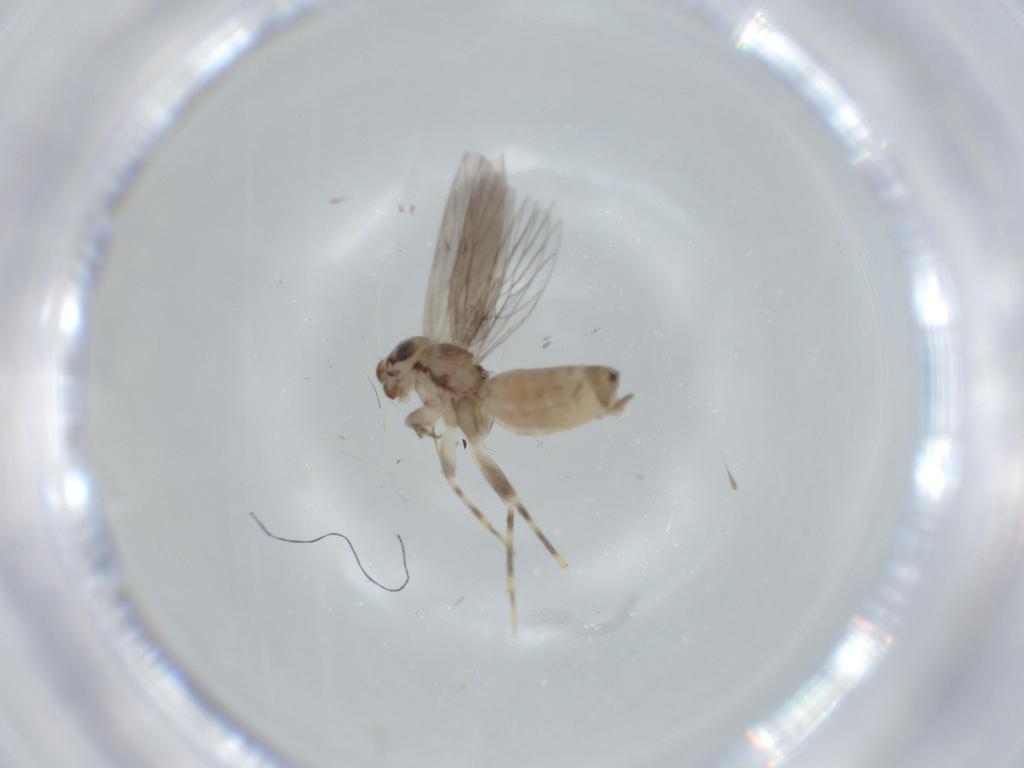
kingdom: Animalia
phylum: Arthropoda
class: Insecta
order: Psocodea
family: Lepidopsocidae
